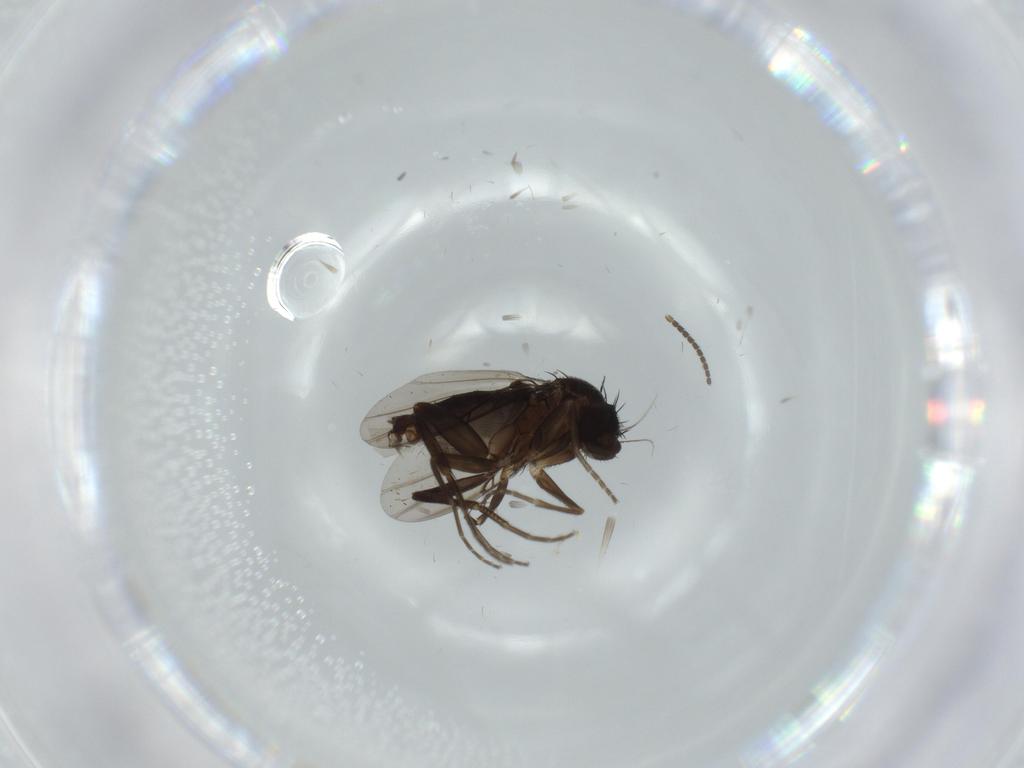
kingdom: Animalia
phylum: Arthropoda
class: Insecta
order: Diptera
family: Phoridae
